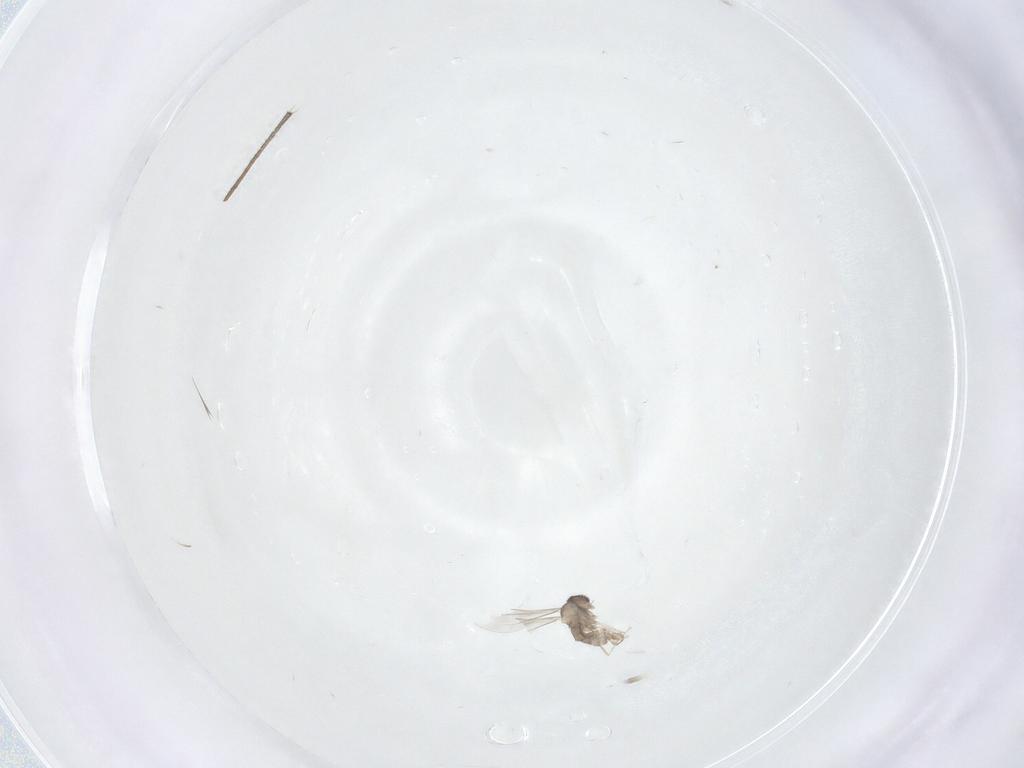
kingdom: Animalia
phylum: Arthropoda
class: Insecta
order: Diptera
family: Cecidomyiidae
